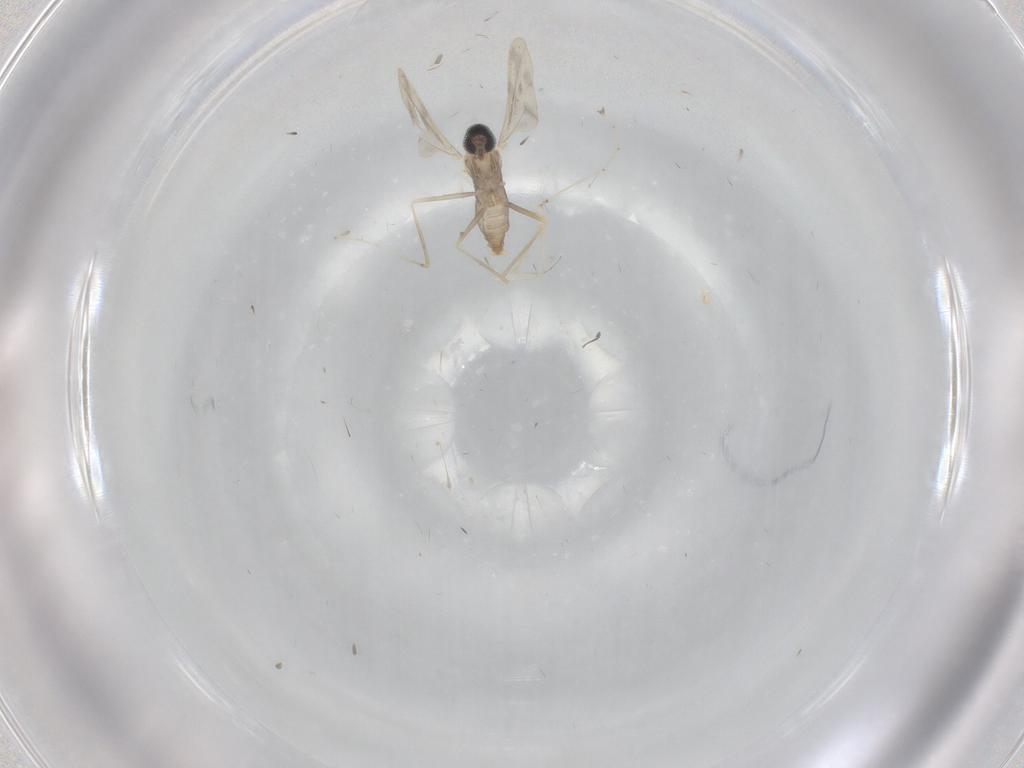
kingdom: Animalia
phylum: Arthropoda
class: Insecta
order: Diptera
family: Cecidomyiidae
